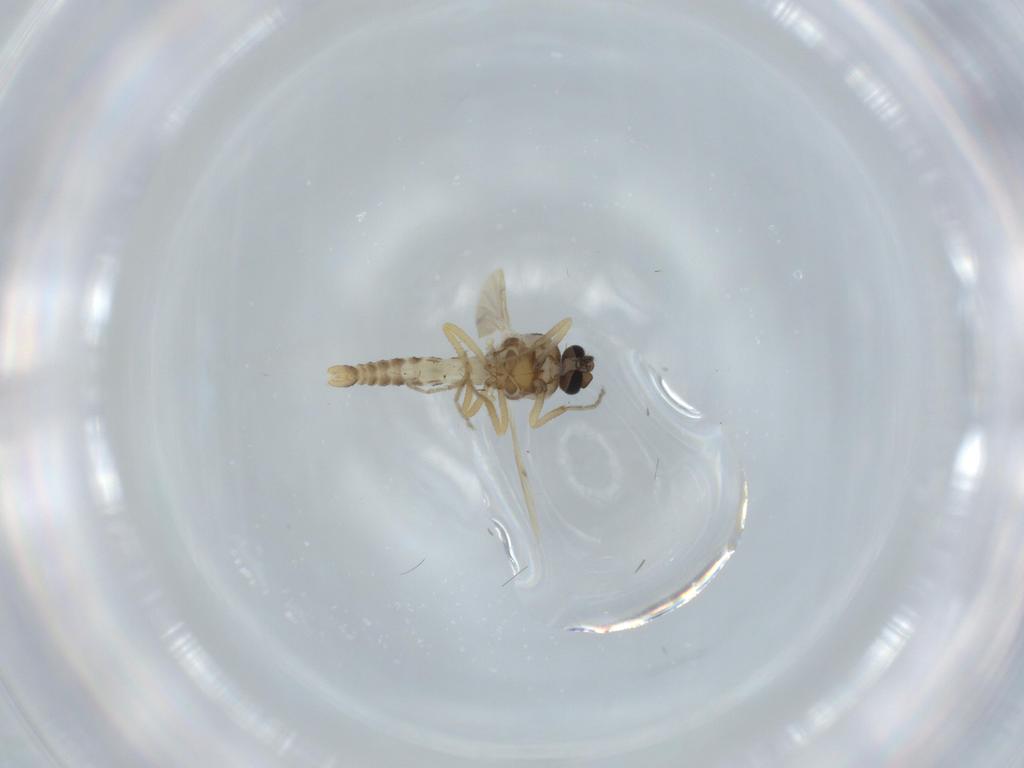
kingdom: Animalia
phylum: Arthropoda
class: Insecta
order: Diptera
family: Ceratopogonidae
